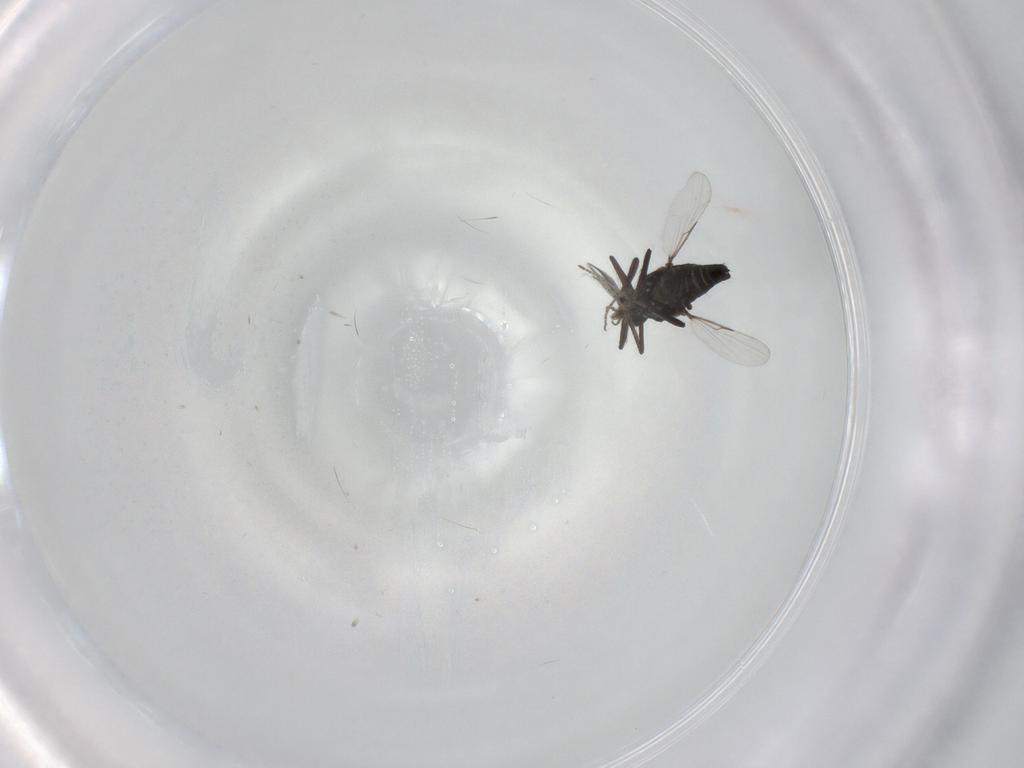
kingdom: Animalia
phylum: Arthropoda
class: Insecta
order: Diptera
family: Ceratopogonidae
